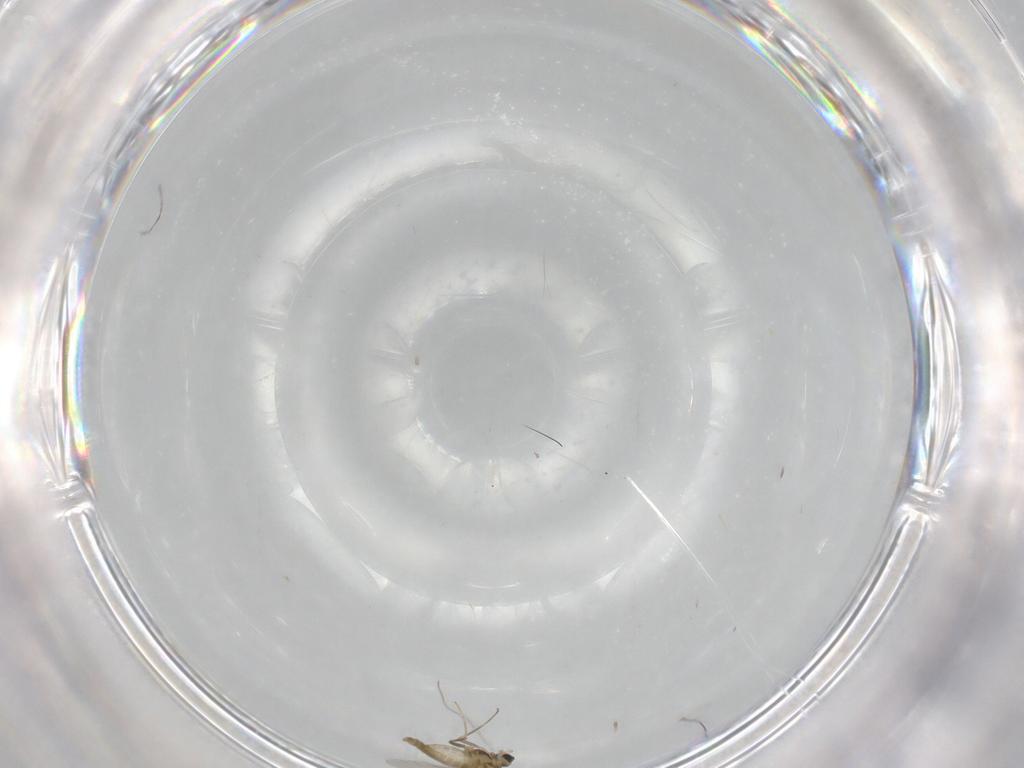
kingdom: Animalia
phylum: Arthropoda
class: Insecta
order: Diptera
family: Chironomidae
